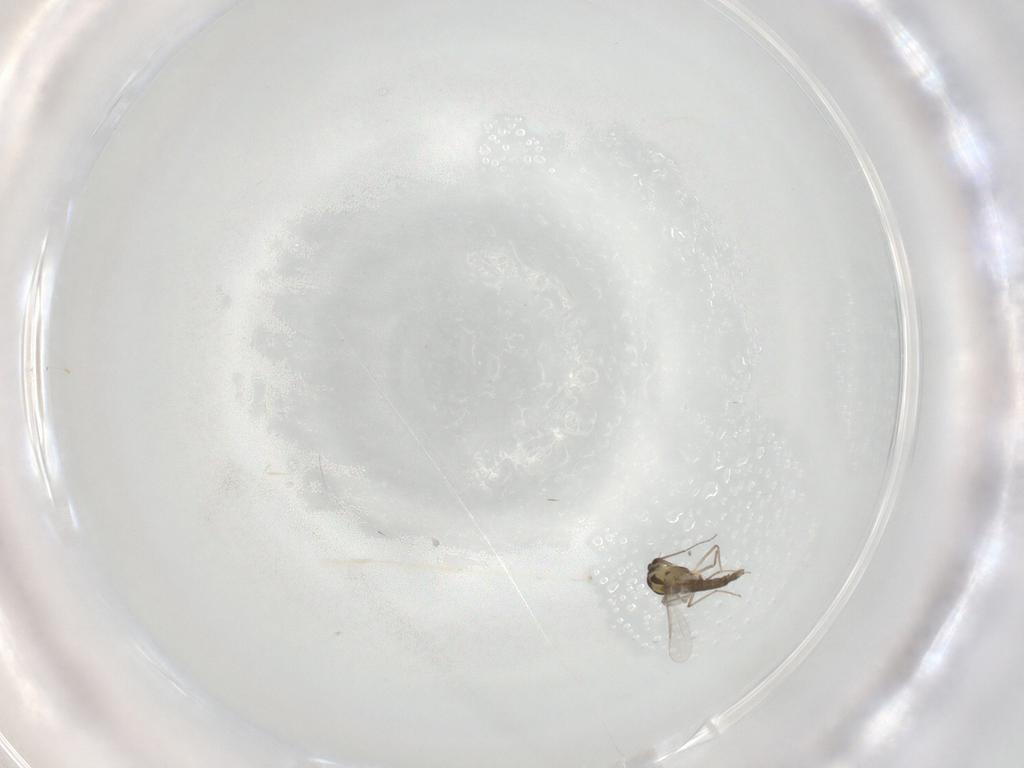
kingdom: Animalia
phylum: Arthropoda
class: Insecta
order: Diptera
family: Chironomidae
